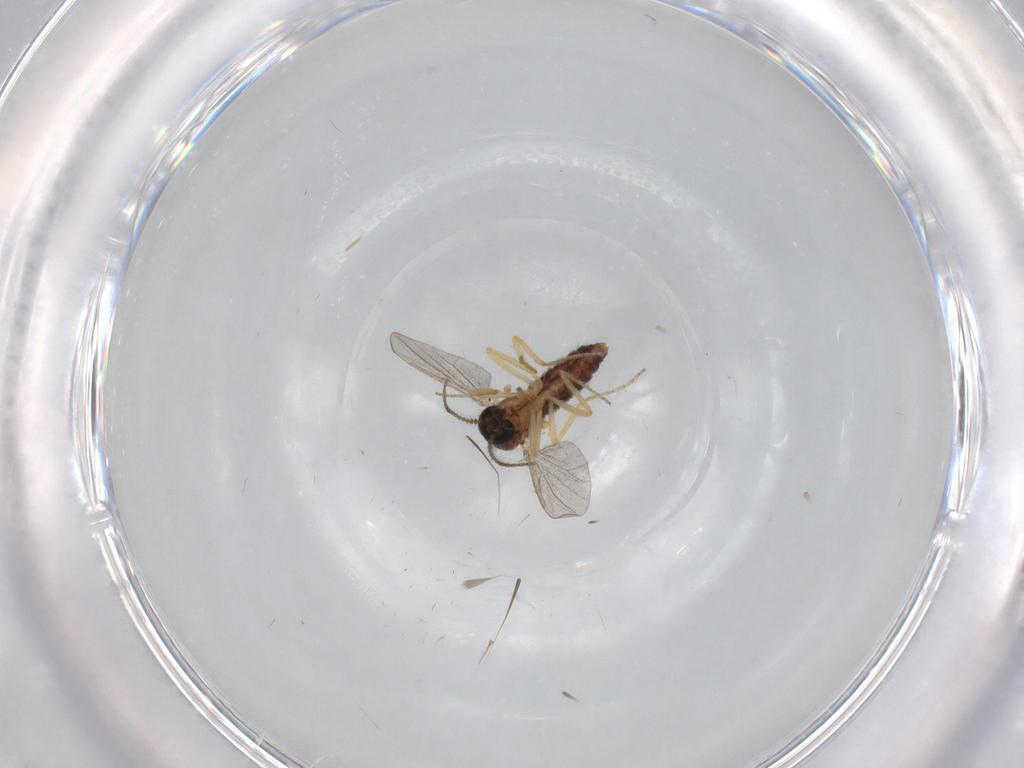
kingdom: Animalia
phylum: Arthropoda
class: Insecta
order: Diptera
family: Ceratopogonidae
